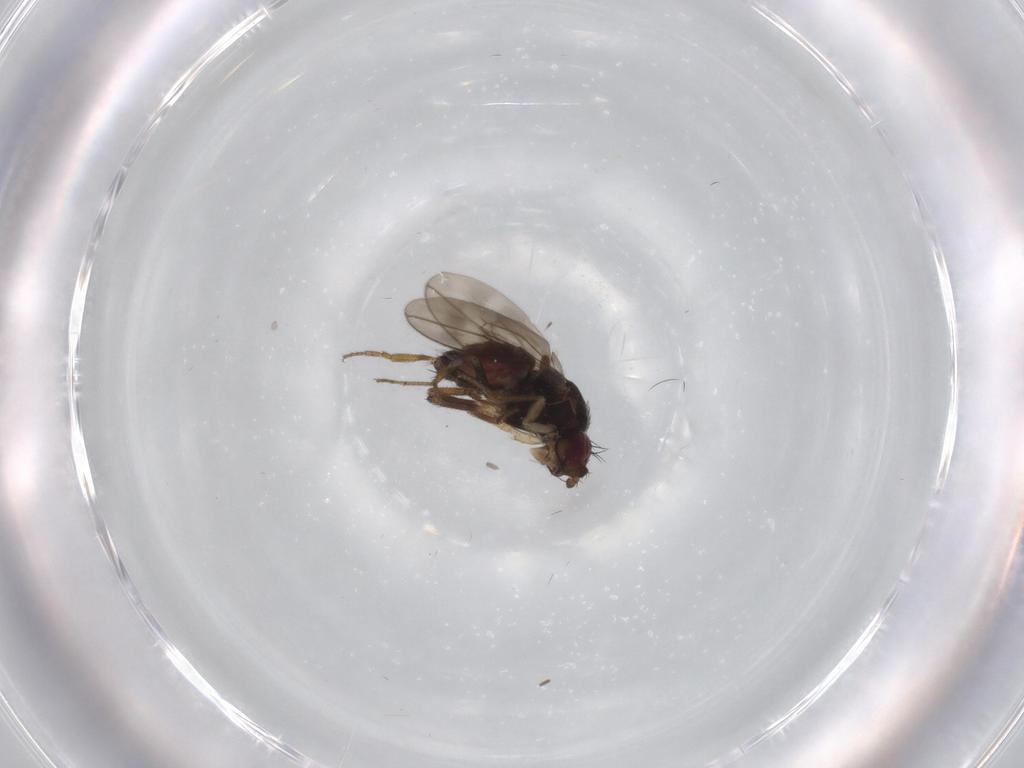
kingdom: Animalia
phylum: Arthropoda
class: Insecta
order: Diptera
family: Sphaeroceridae
